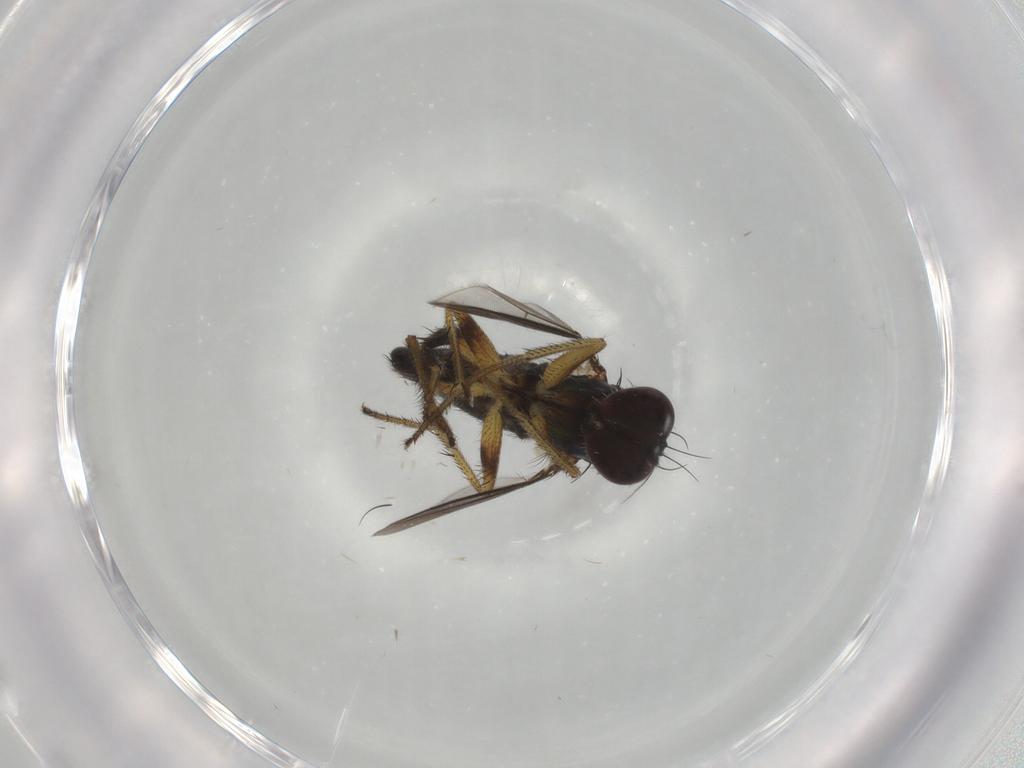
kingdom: Animalia
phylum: Arthropoda
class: Insecta
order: Diptera
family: Dolichopodidae
